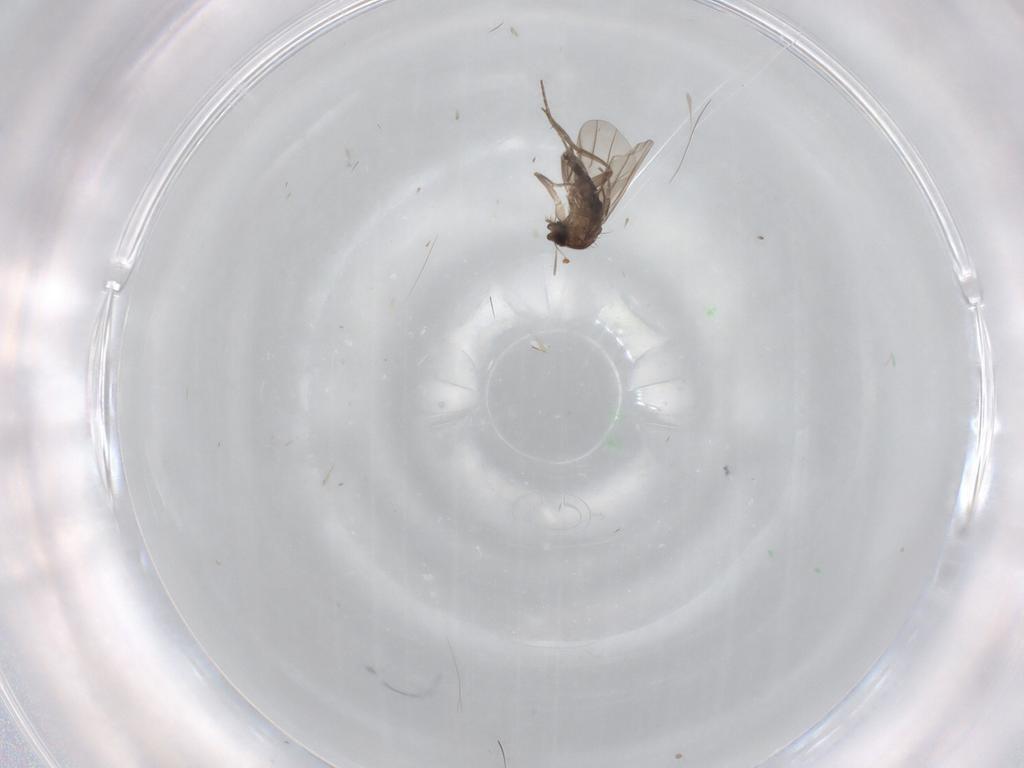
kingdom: Animalia
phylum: Arthropoda
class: Insecta
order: Diptera
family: Phoridae
